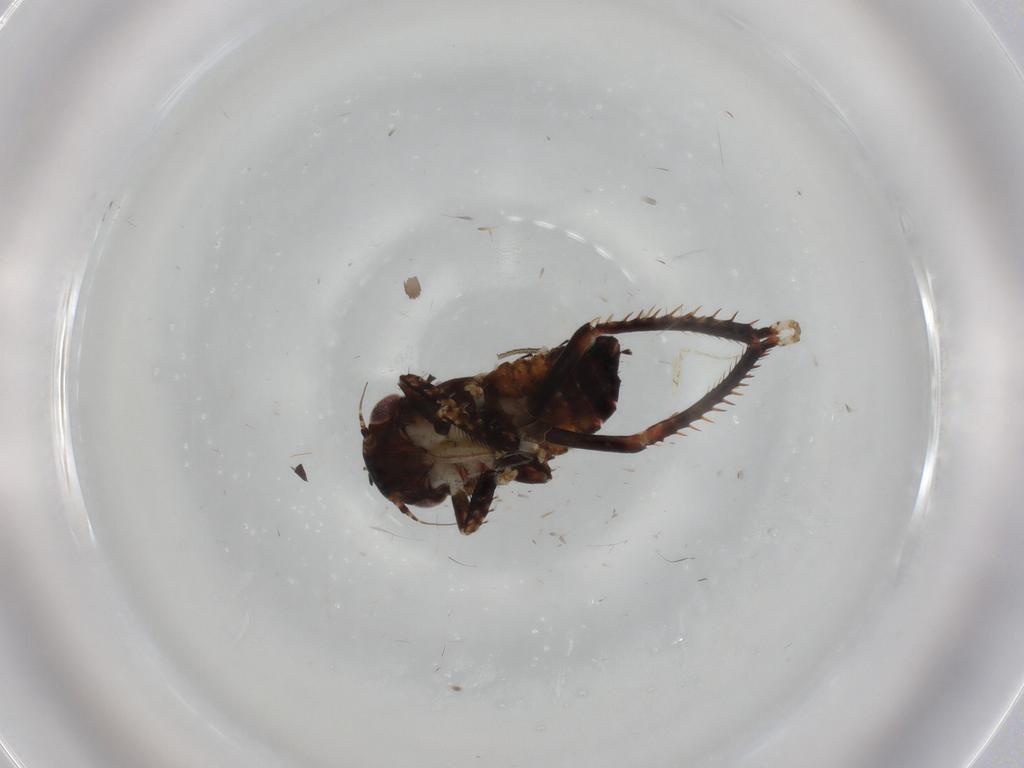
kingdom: Animalia
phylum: Arthropoda
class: Insecta
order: Hemiptera
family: Cicadellidae
